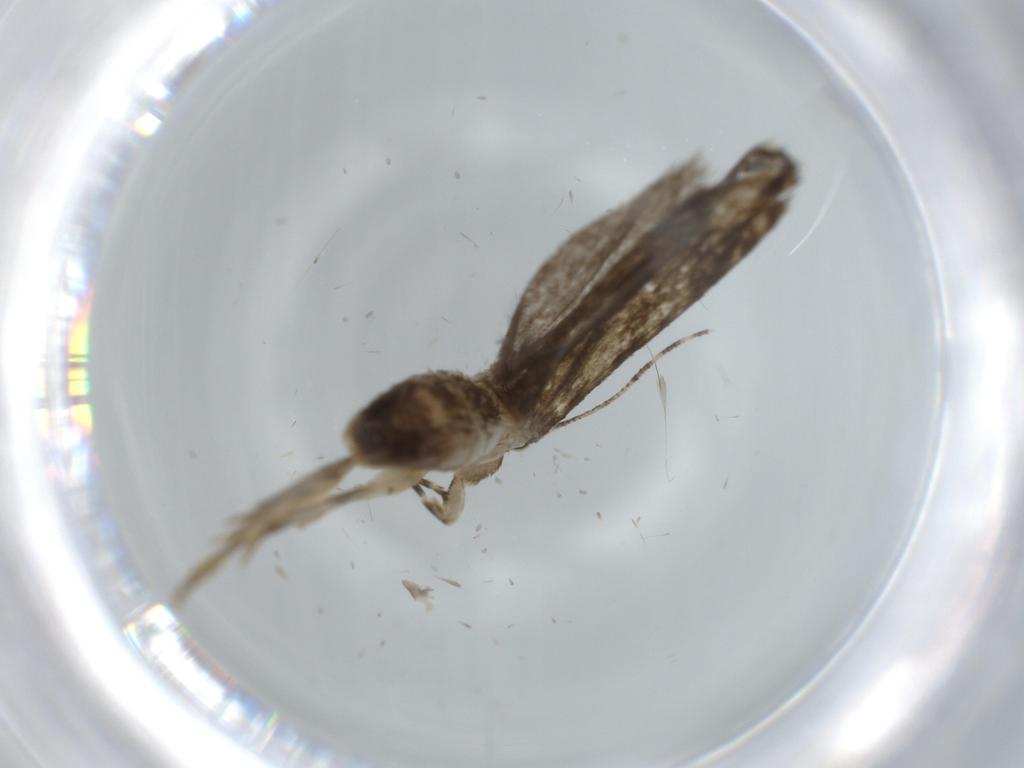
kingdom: Animalia
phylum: Arthropoda
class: Insecta
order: Lepidoptera
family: Tineidae
